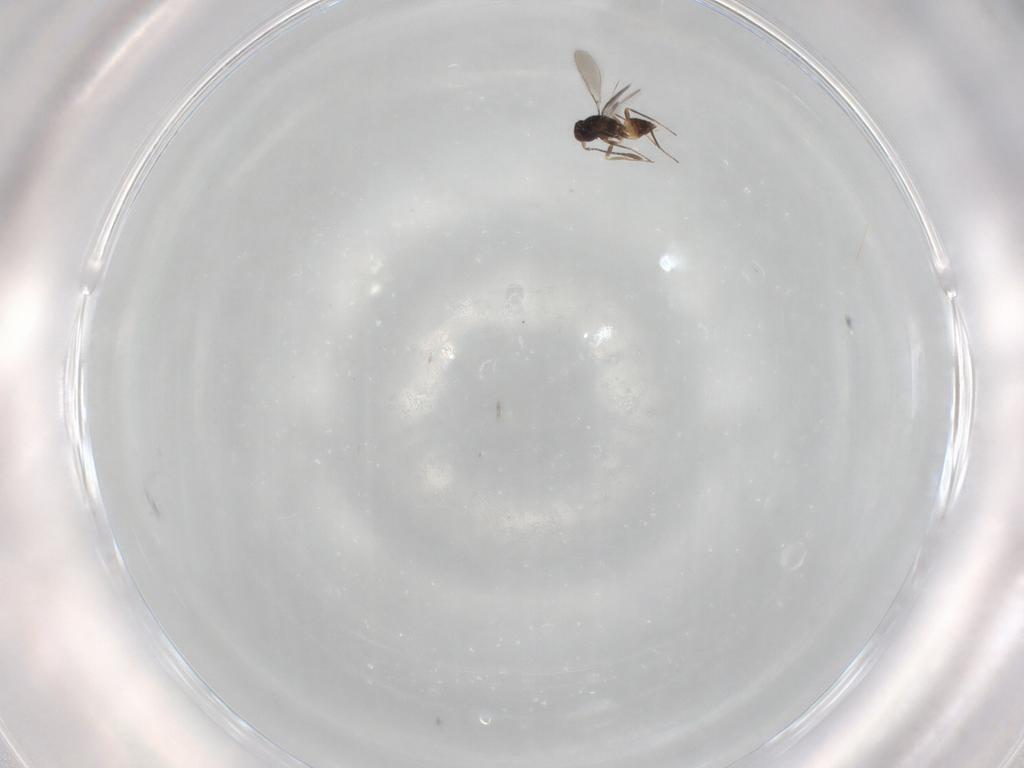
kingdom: Animalia
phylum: Arthropoda
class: Insecta
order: Hymenoptera
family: Mymaridae
